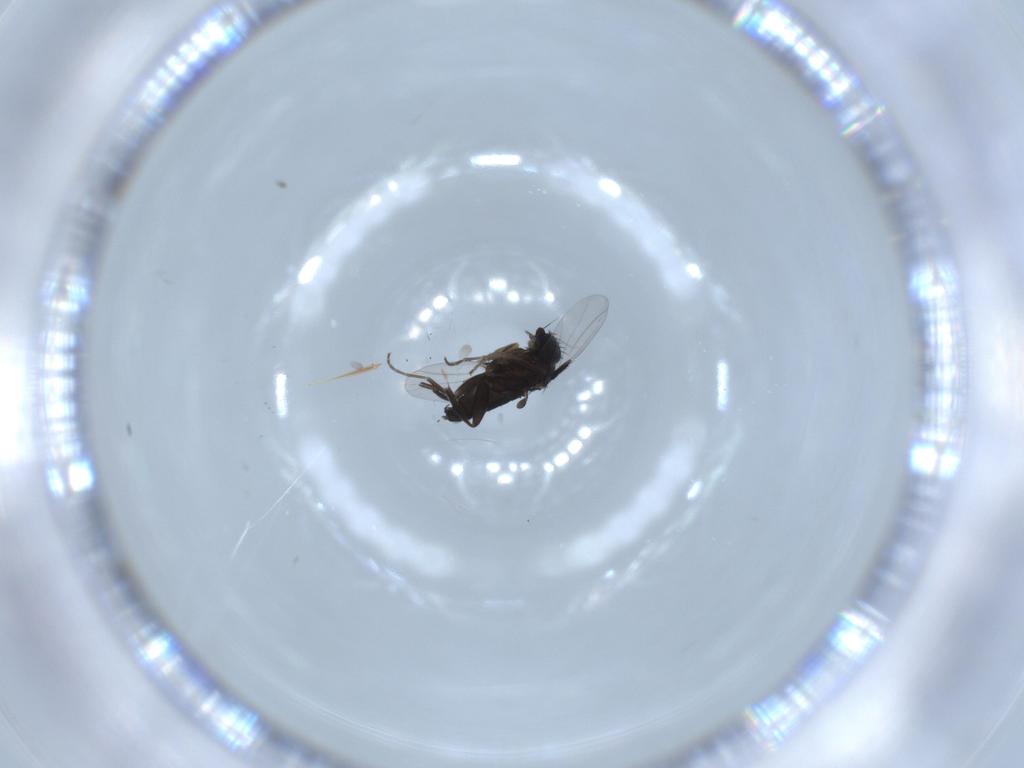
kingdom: Animalia
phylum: Arthropoda
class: Insecta
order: Diptera
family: Phoridae
